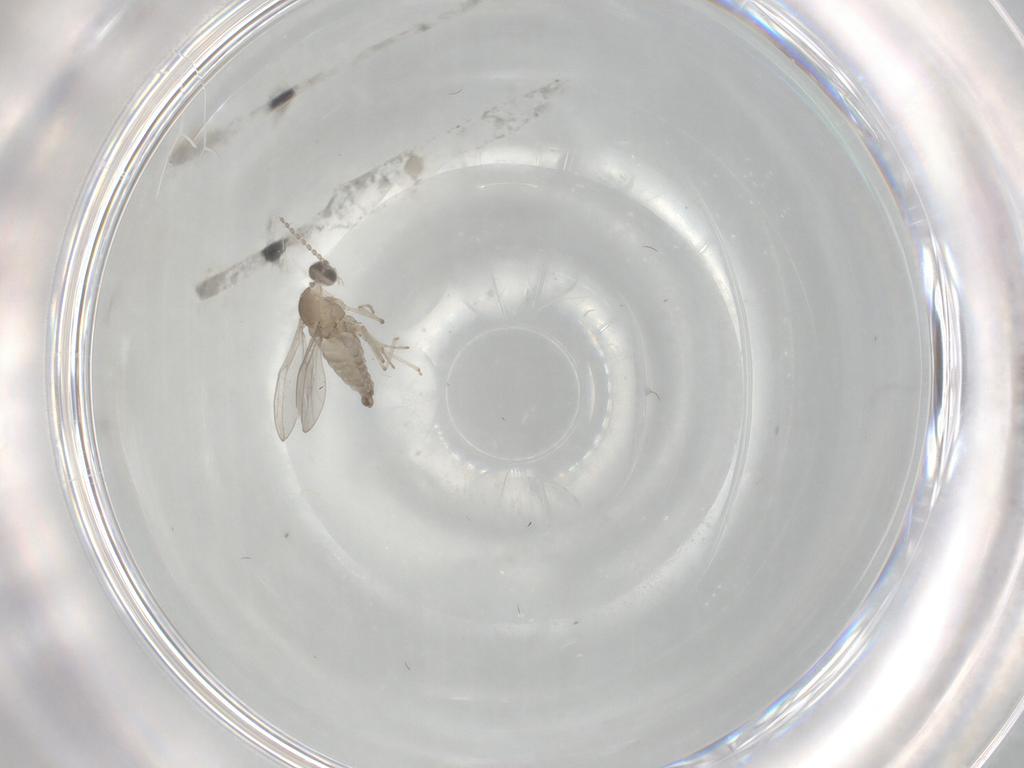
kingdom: Animalia
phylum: Arthropoda
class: Insecta
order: Diptera
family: Cecidomyiidae
